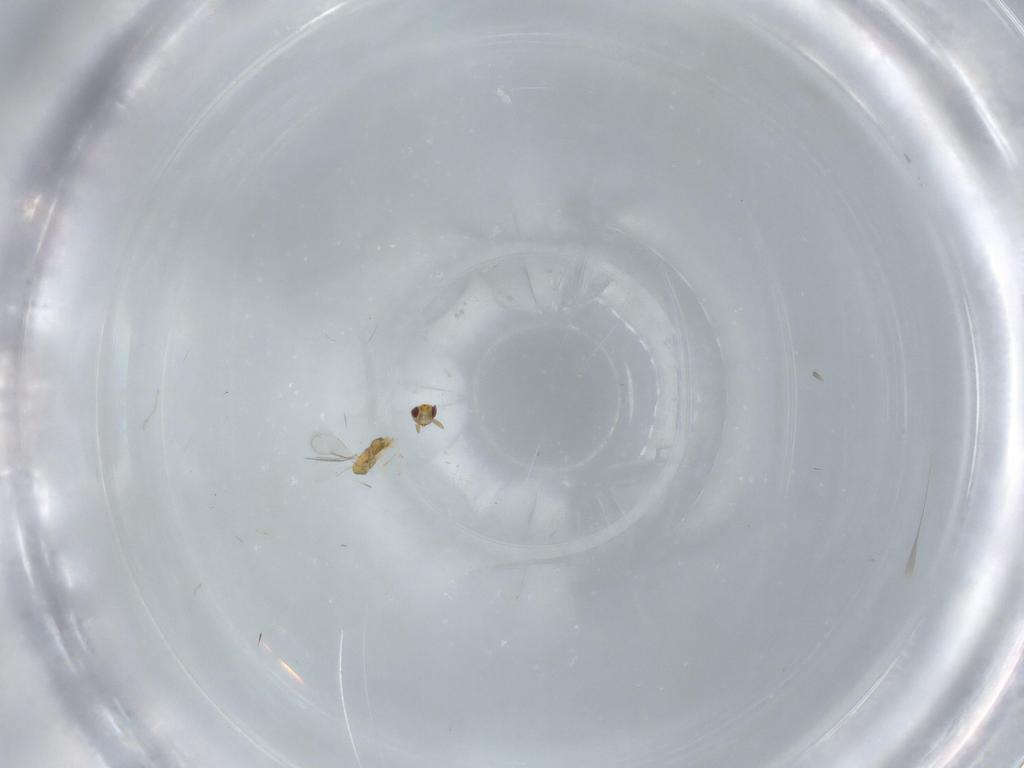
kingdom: Animalia
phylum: Arthropoda
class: Insecta
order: Hymenoptera
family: Aphelinidae
